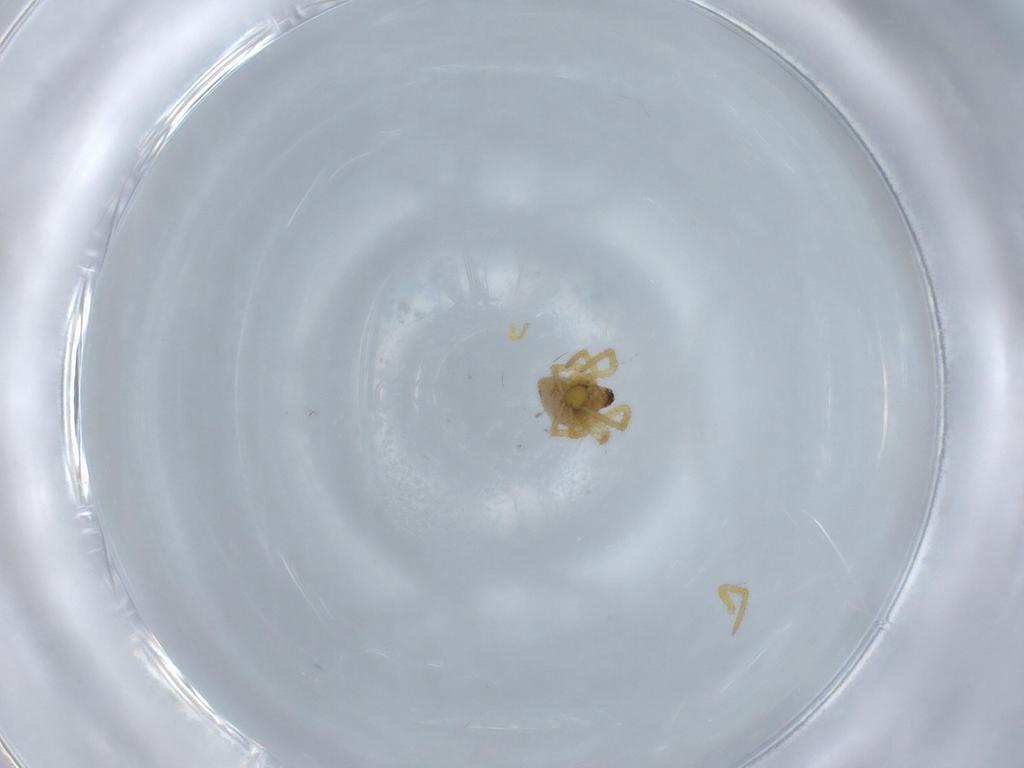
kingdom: Animalia
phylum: Arthropoda
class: Arachnida
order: Araneae
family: Theridiidae
